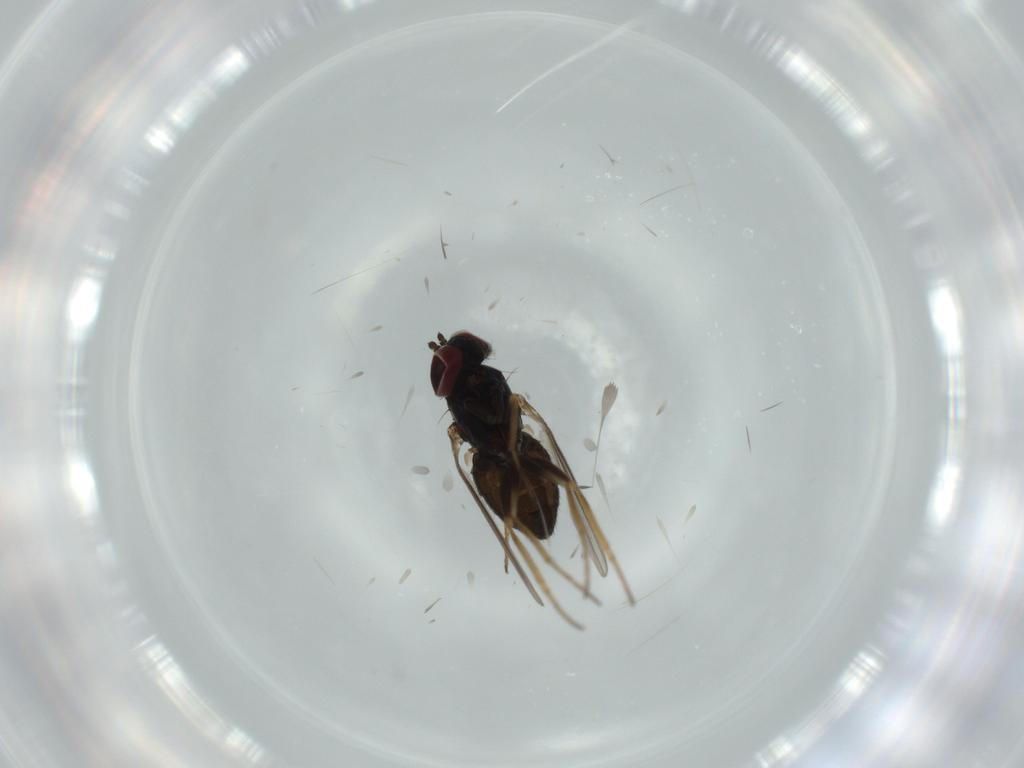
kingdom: Animalia
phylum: Arthropoda
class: Insecta
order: Diptera
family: Dolichopodidae
